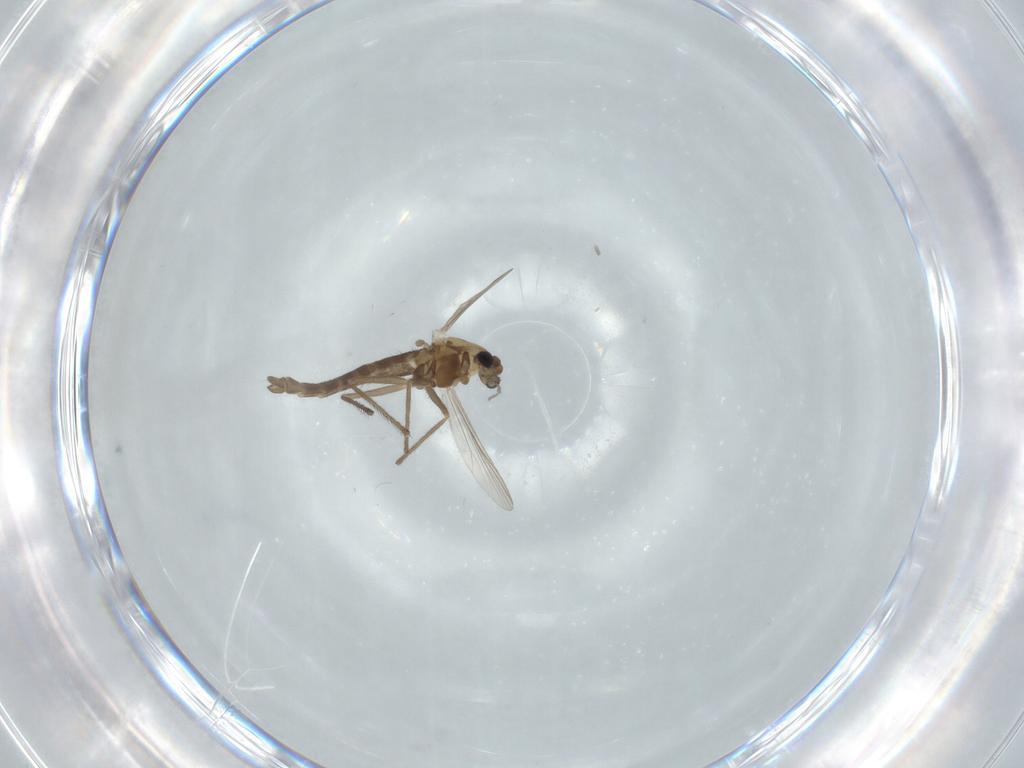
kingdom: Animalia
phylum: Arthropoda
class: Insecta
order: Diptera
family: Chironomidae
